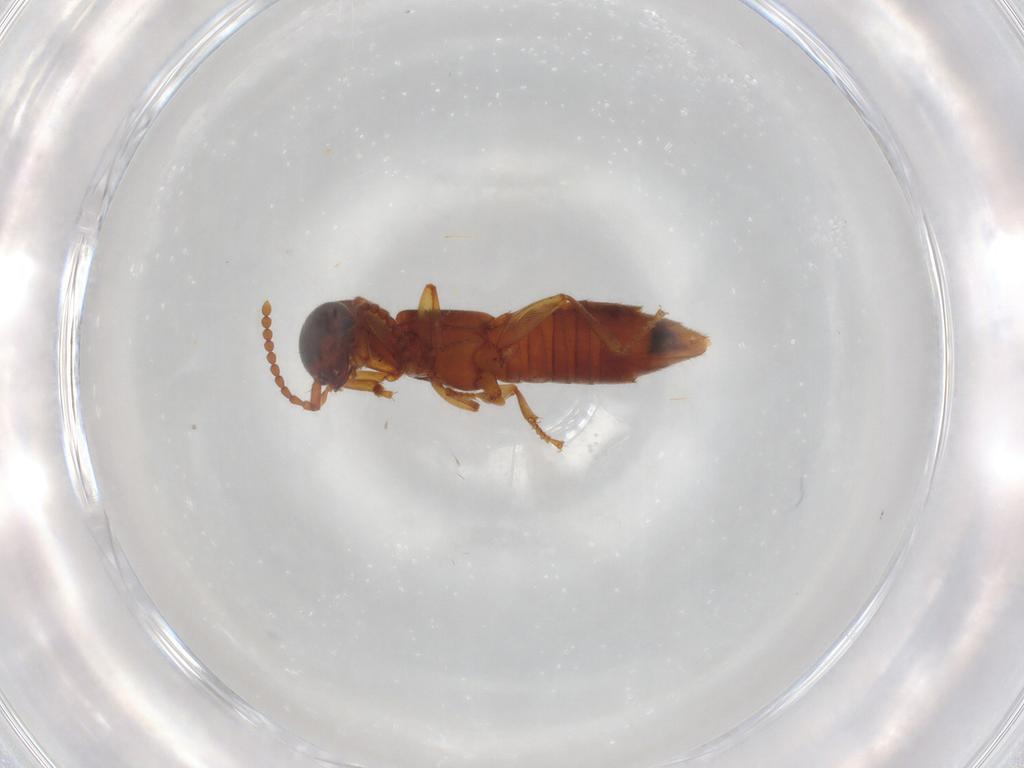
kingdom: Animalia
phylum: Arthropoda
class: Insecta
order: Coleoptera
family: Staphylinidae
